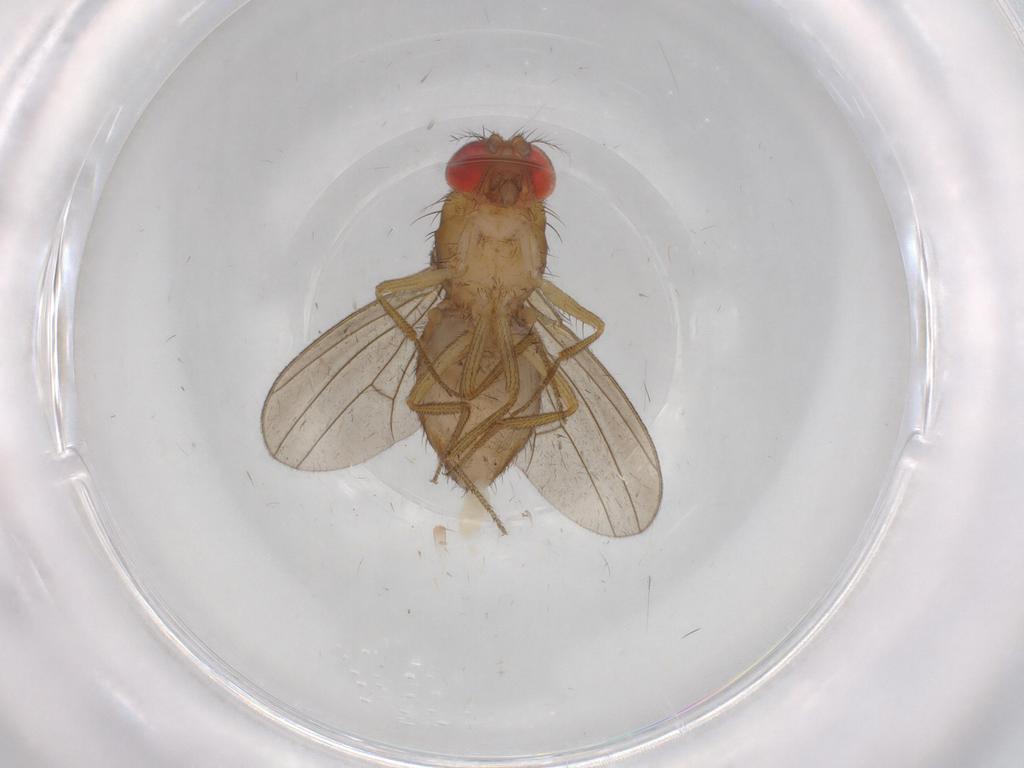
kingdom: Animalia
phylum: Arthropoda
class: Insecta
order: Diptera
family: Drosophilidae
